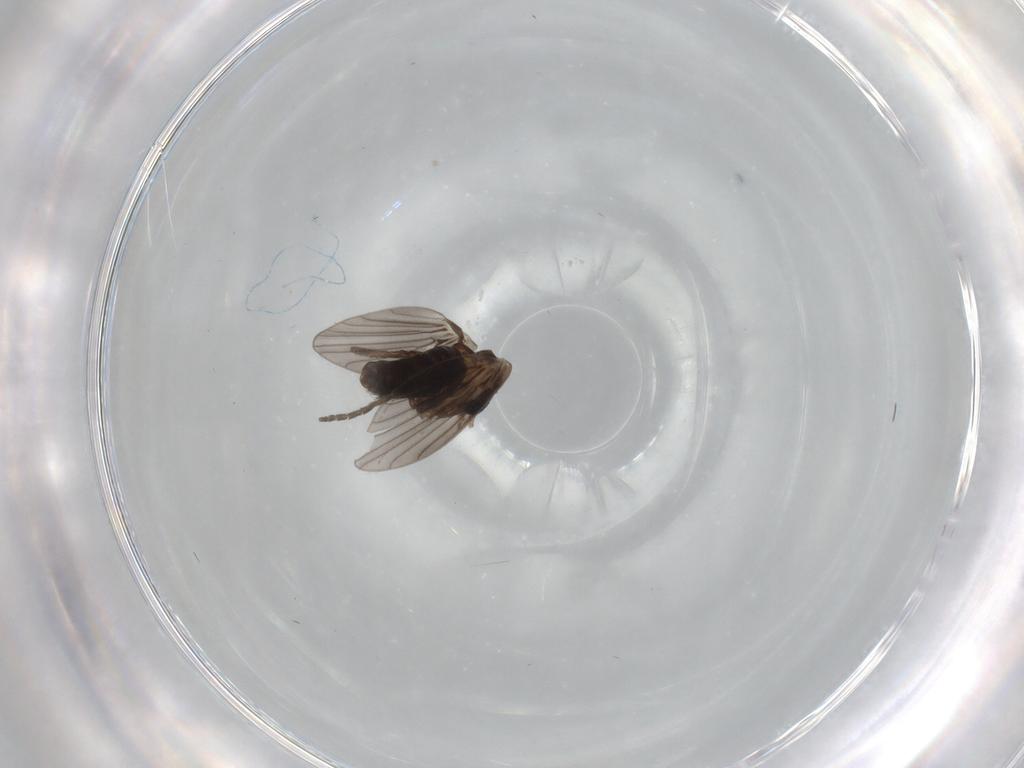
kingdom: Animalia
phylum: Arthropoda
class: Insecta
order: Diptera
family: Psychodidae
